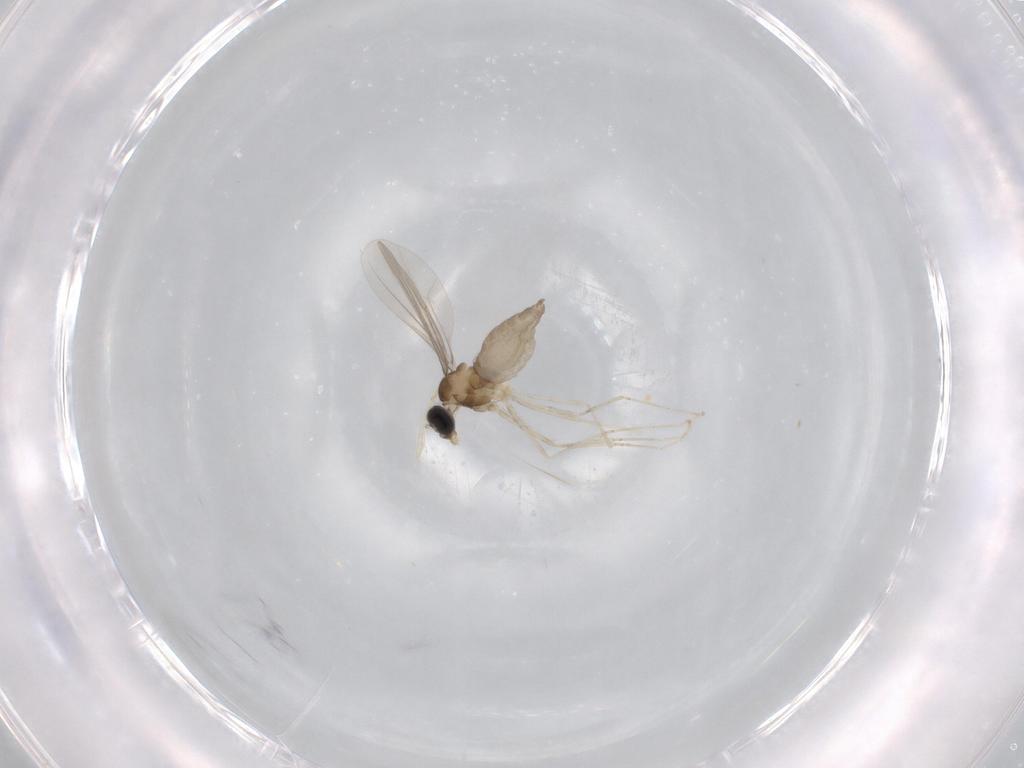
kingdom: Animalia
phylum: Arthropoda
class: Insecta
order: Diptera
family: Cecidomyiidae
